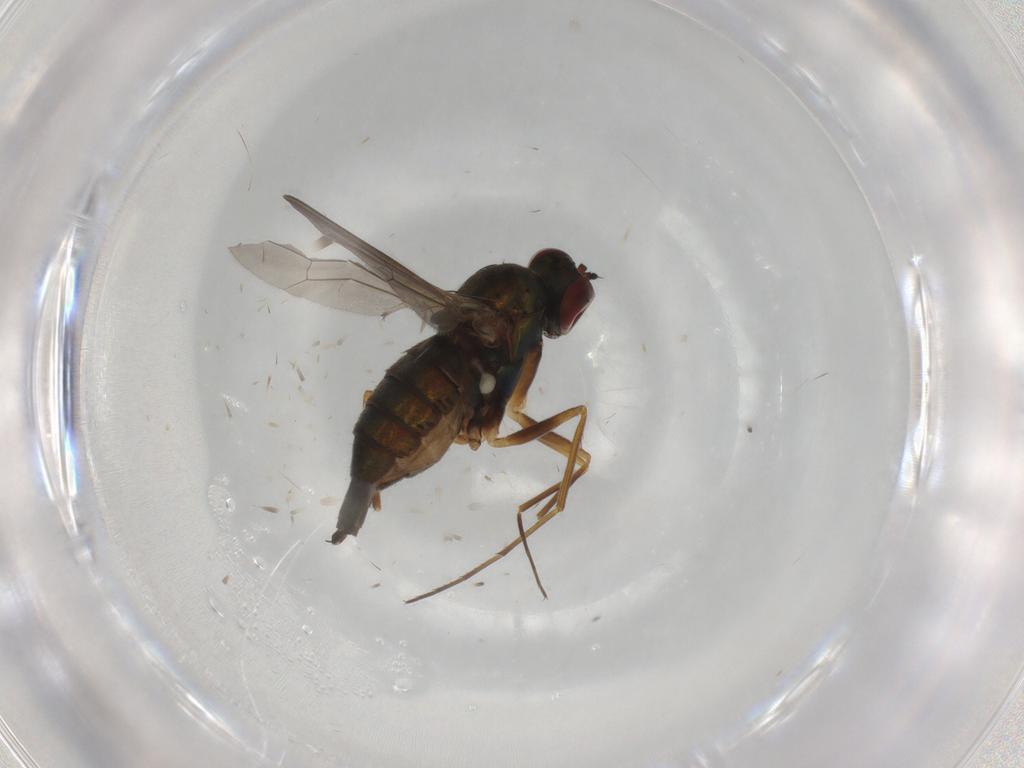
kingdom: Animalia
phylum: Arthropoda
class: Insecta
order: Diptera
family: Dolichopodidae
